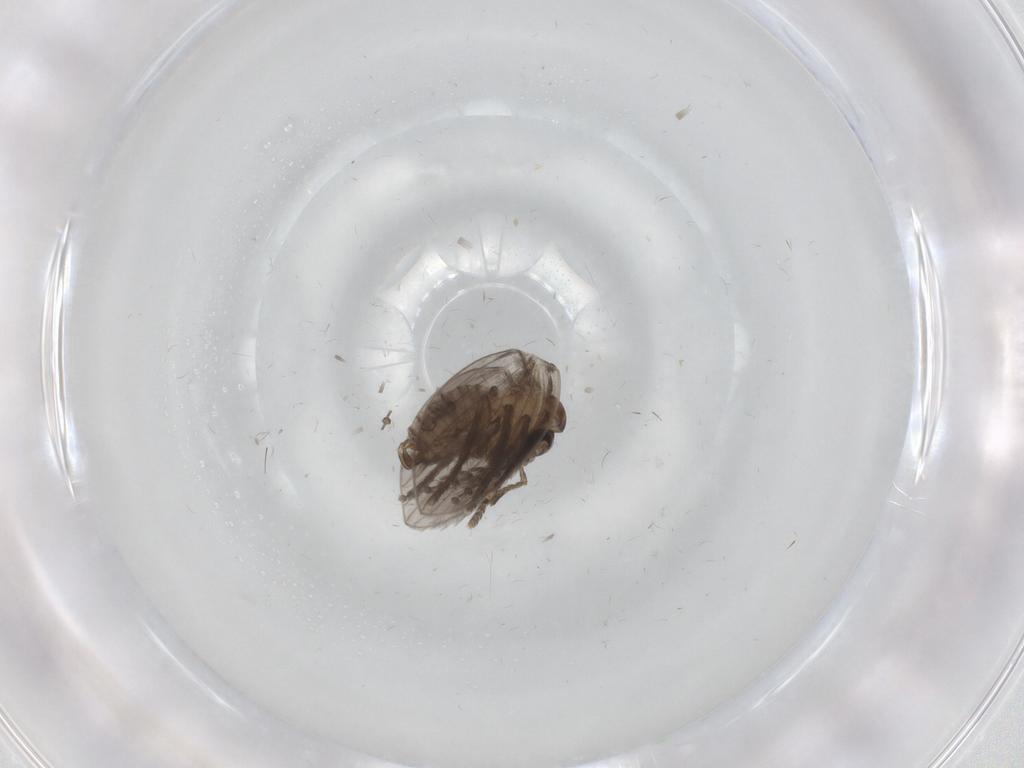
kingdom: Animalia
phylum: Arthropoda
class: Insecta
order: Diptera
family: Psychodidae
